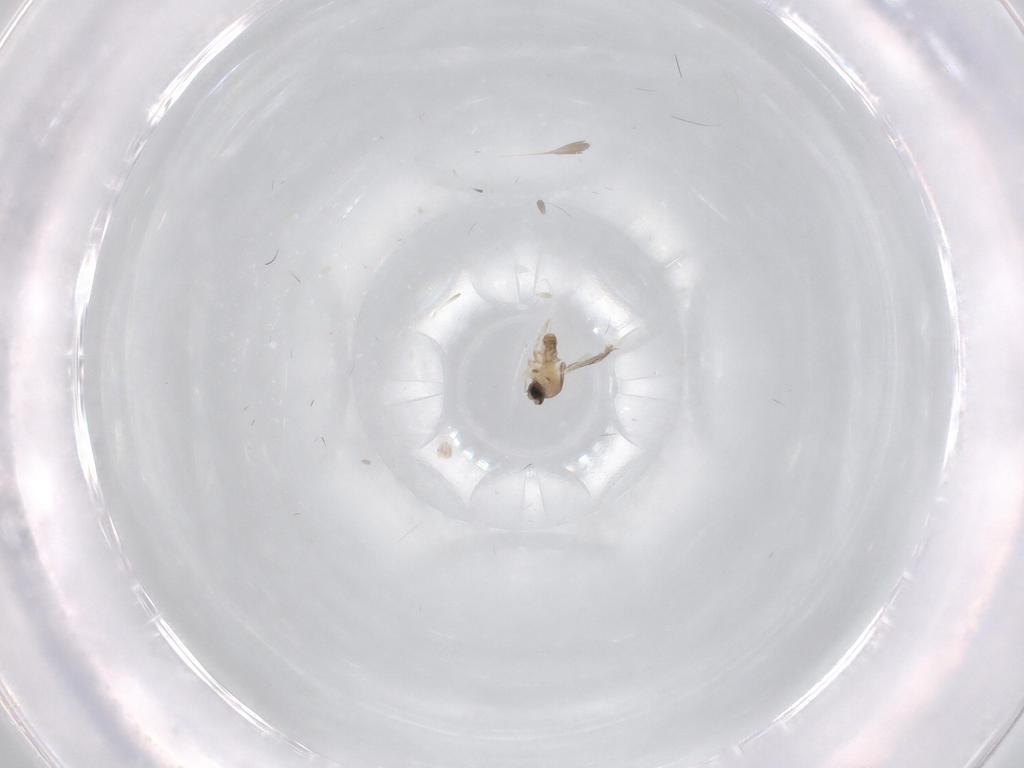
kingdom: Animalia
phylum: Arthropoda
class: Insecta
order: Diptera
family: Cecidomyiidae
